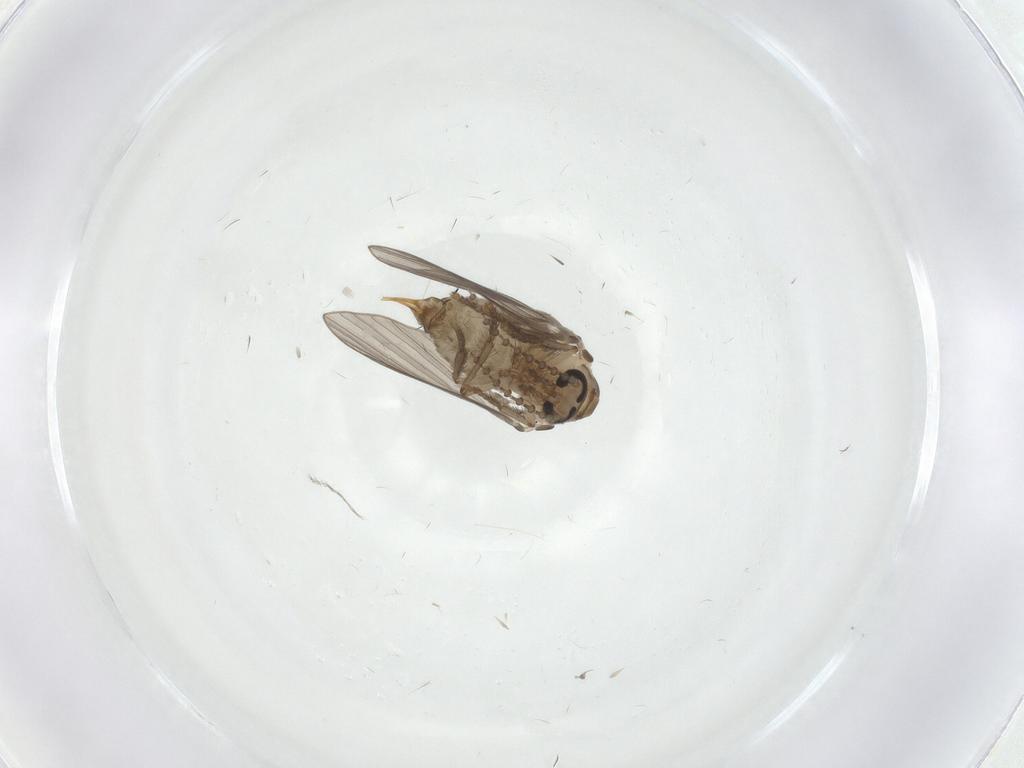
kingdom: Animalia
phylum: Arthropoda
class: Insecta
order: Diptera
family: Psychodidae
